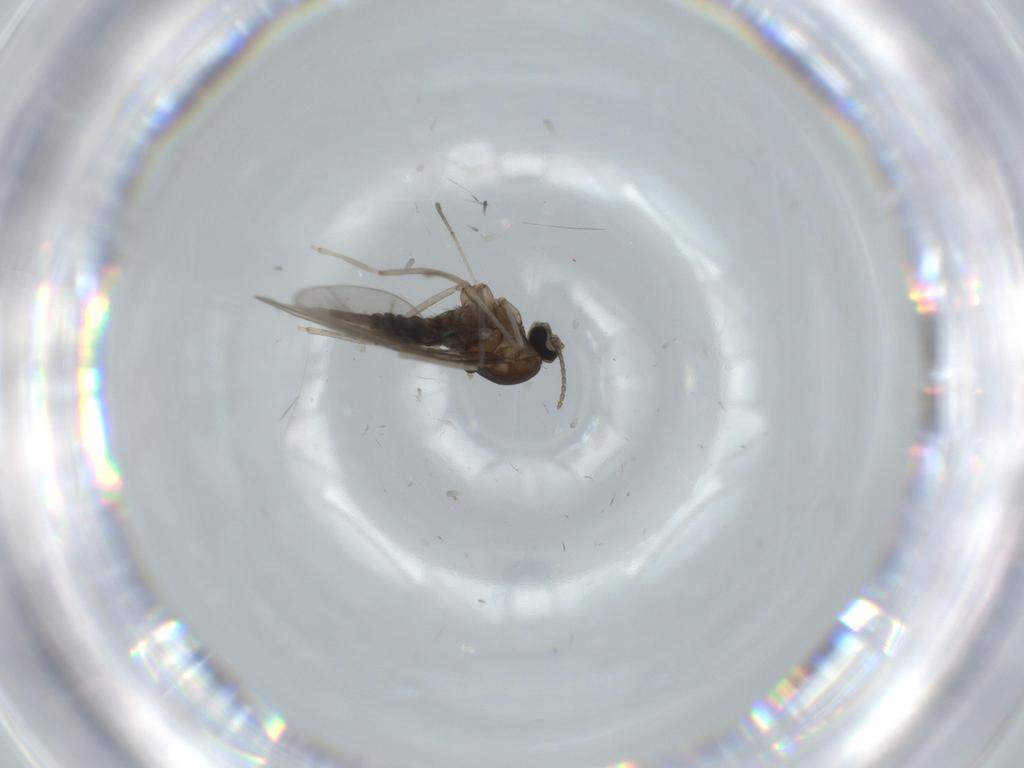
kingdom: Animalia
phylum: Arthropoda
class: Insecta
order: Diptera
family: Cecidomyiidae
